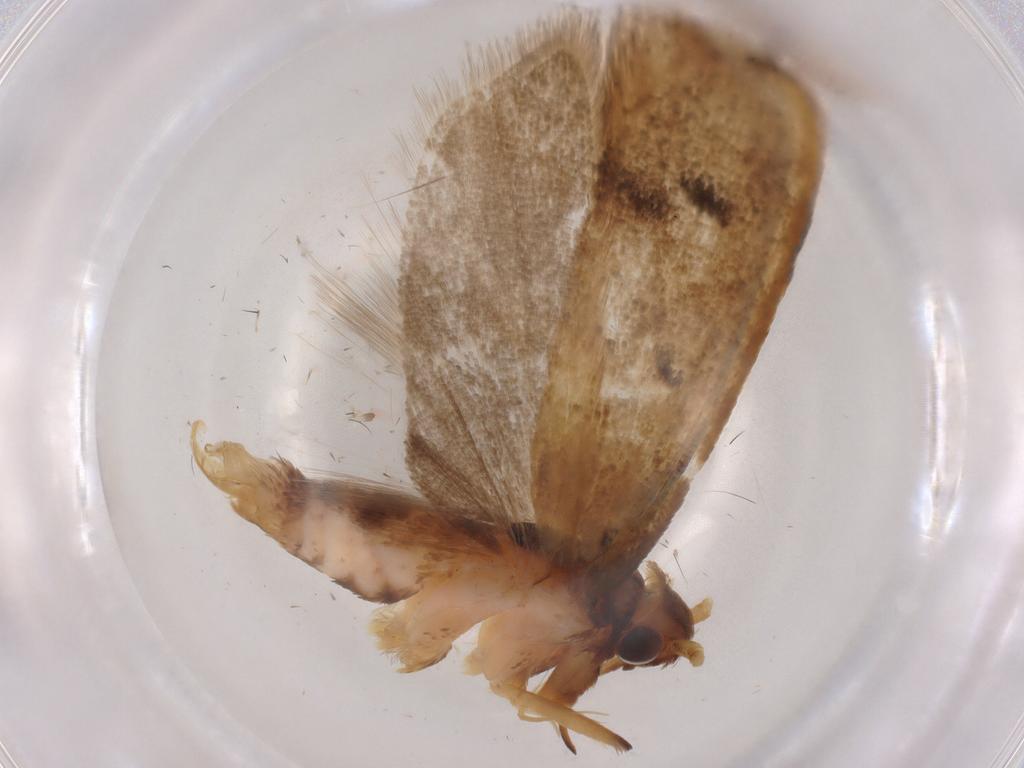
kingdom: Animalia
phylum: Arthropoda
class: Insecta
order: Lepidoptera
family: Lecithoceridae
